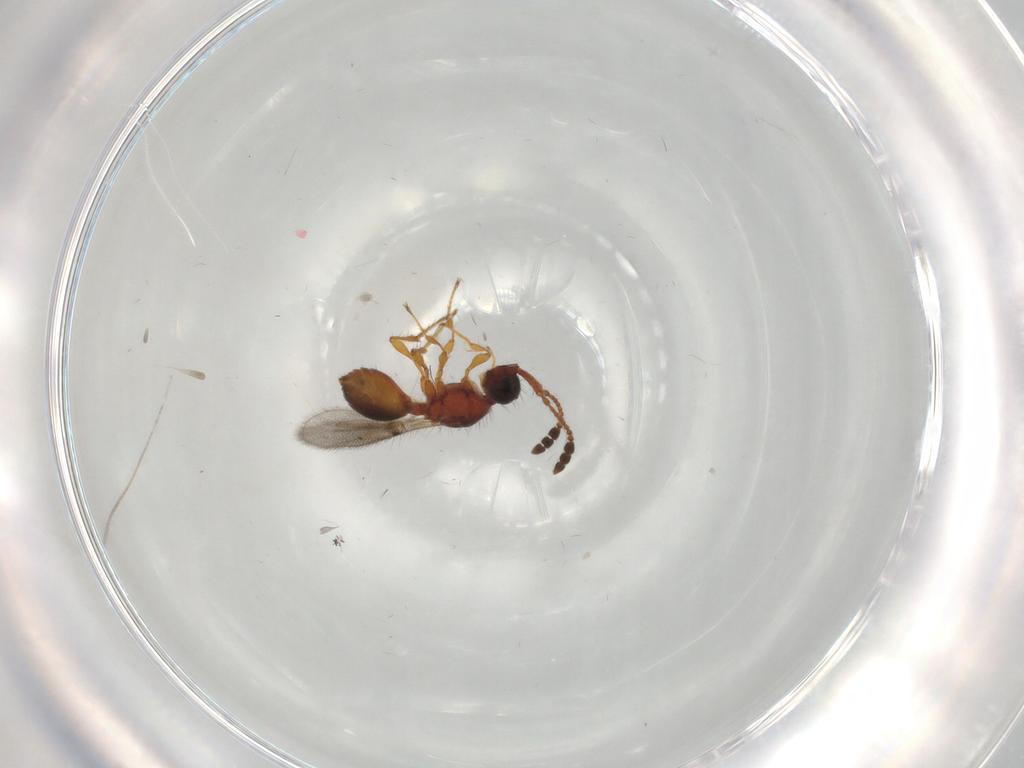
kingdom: Animalia
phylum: Arthropoda
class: Insecta
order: Hymenoptera
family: Diapriidae
